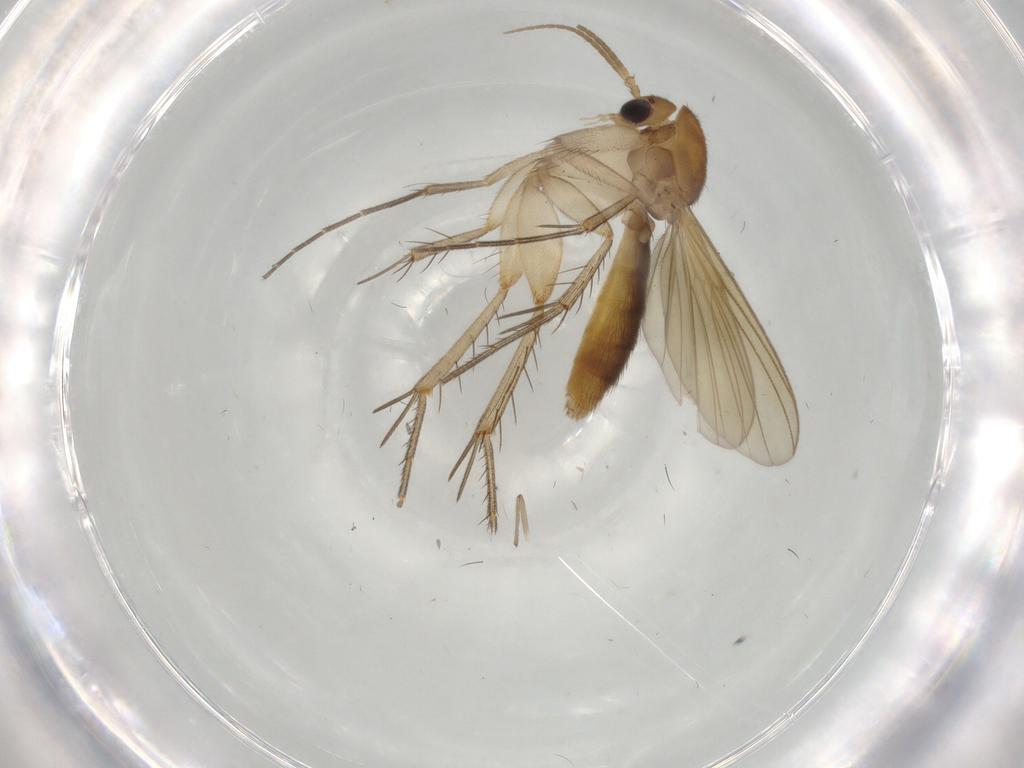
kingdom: Animalia
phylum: Arthropoda
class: Insecta
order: Diptera
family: Mycetophilidae
